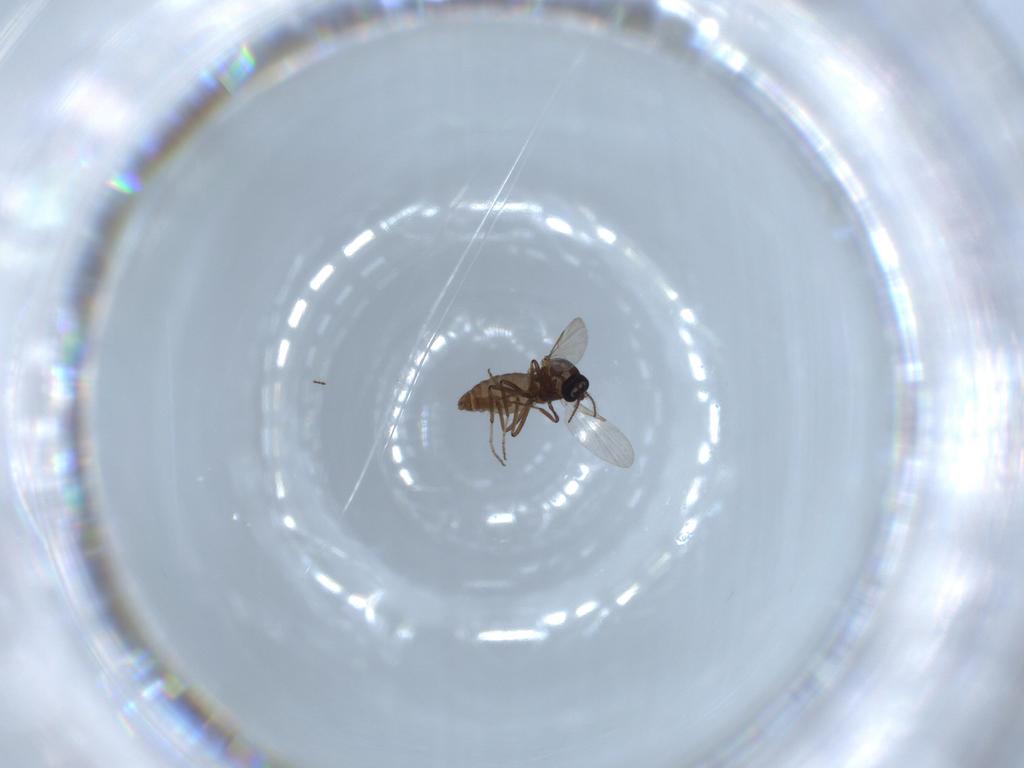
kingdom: Animalia
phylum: Arthropoda
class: Insecta
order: Diptera
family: Ceratopogonidae
